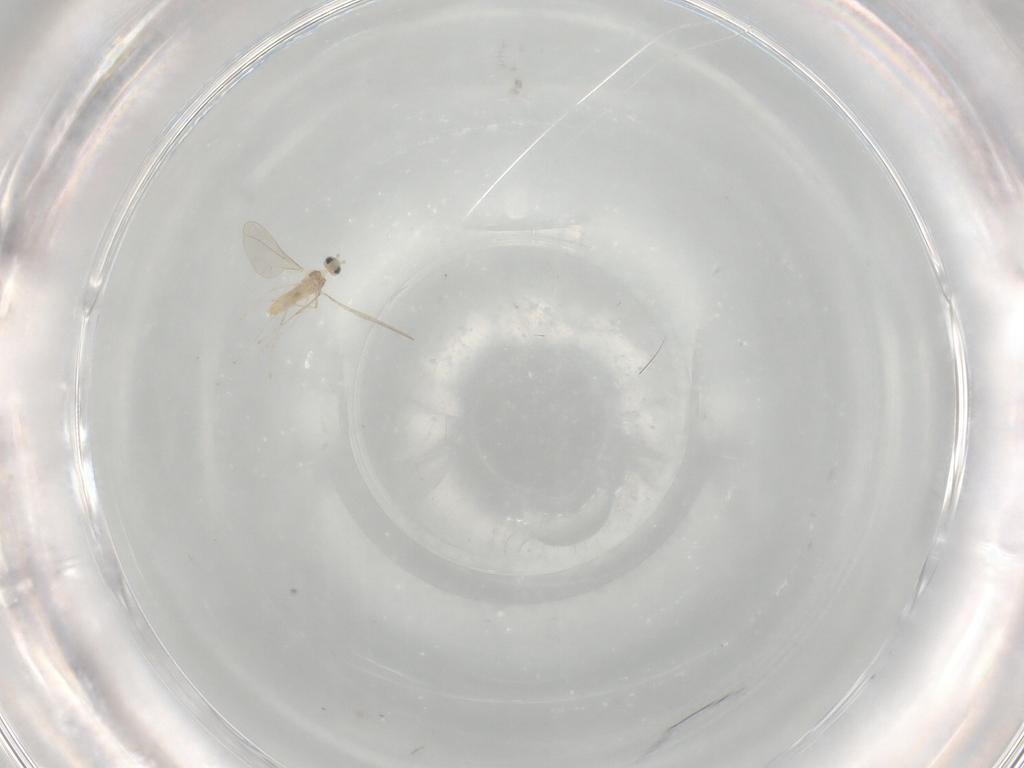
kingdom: Animalia
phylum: Arthropoda
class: Insecta
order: Diptera
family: Cecidomyiidae
